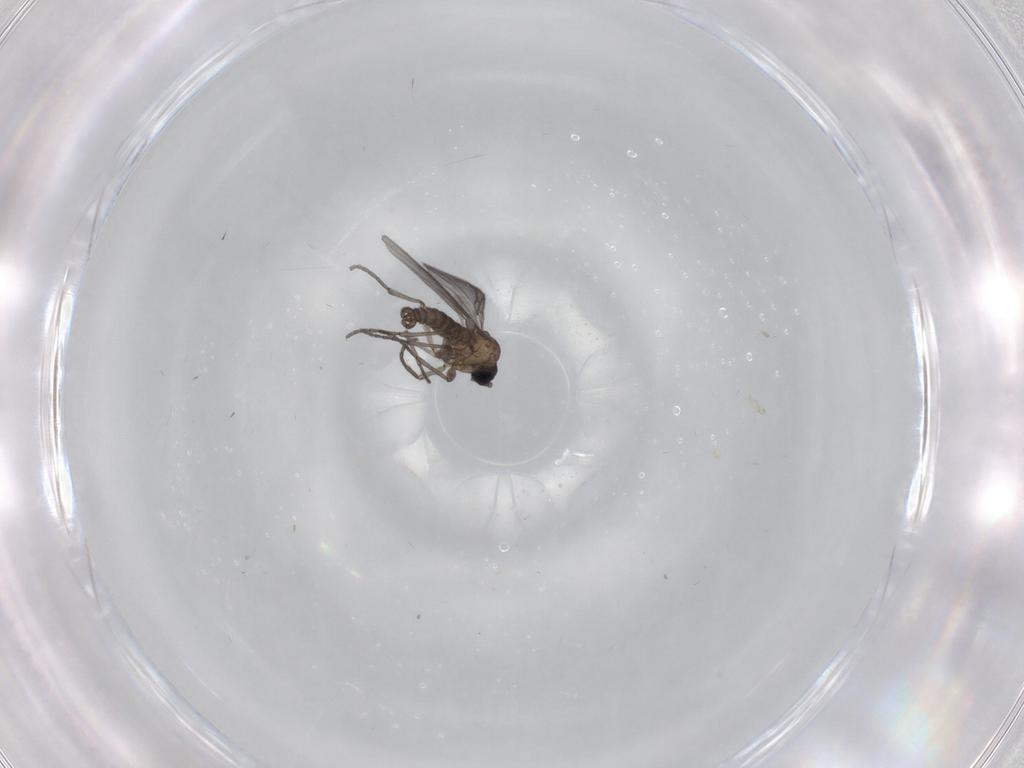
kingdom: Animalia
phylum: Arthropoda
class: Insecta
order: Diptera
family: Sciaridae
